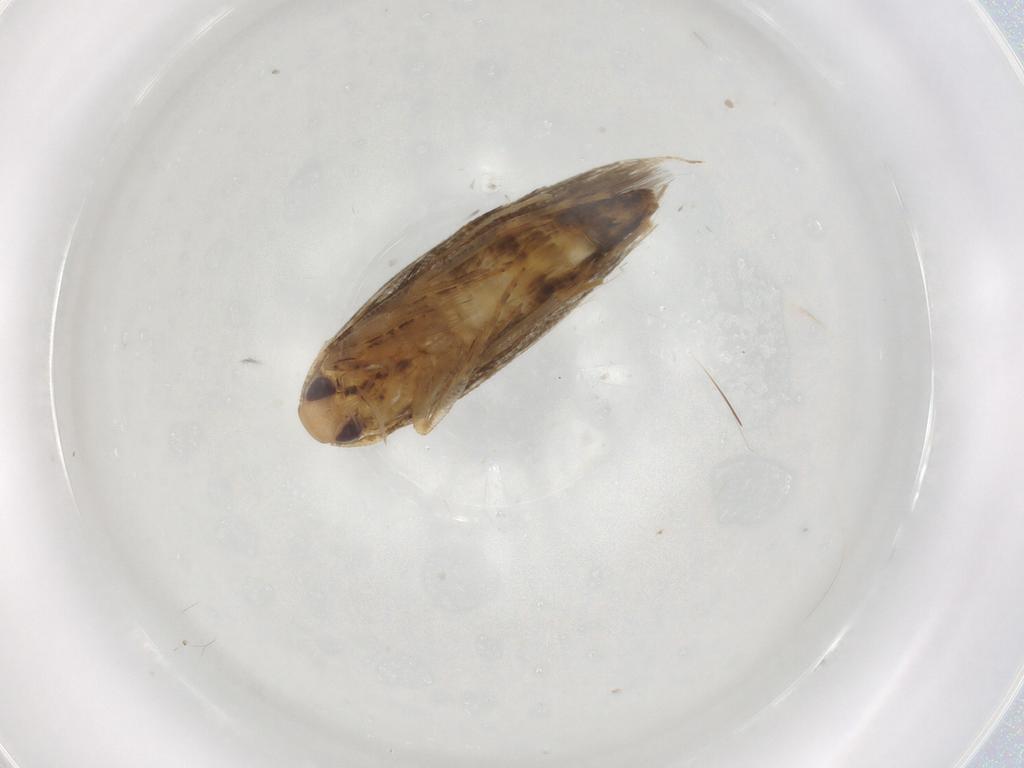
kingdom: Animalia
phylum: Arthropoda
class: Insecta
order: Lepidoptera
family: Cosmopterigidae
